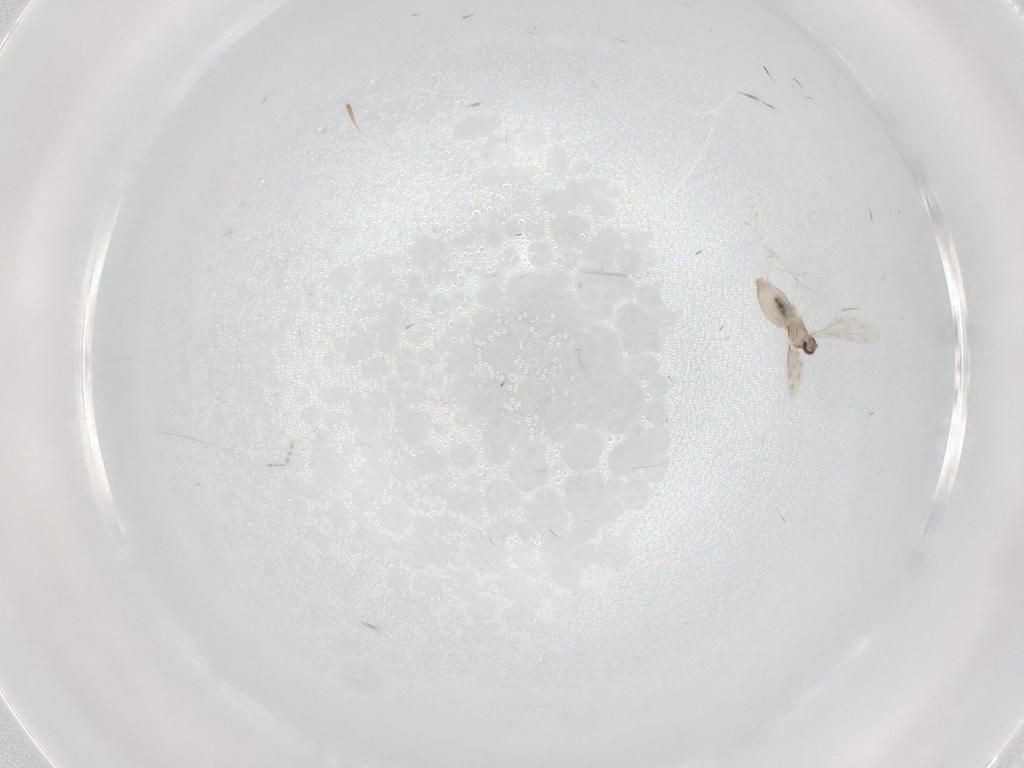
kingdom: Animalia
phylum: Arthropoda
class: Insecta
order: Diptera
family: Cecidomyiidae
